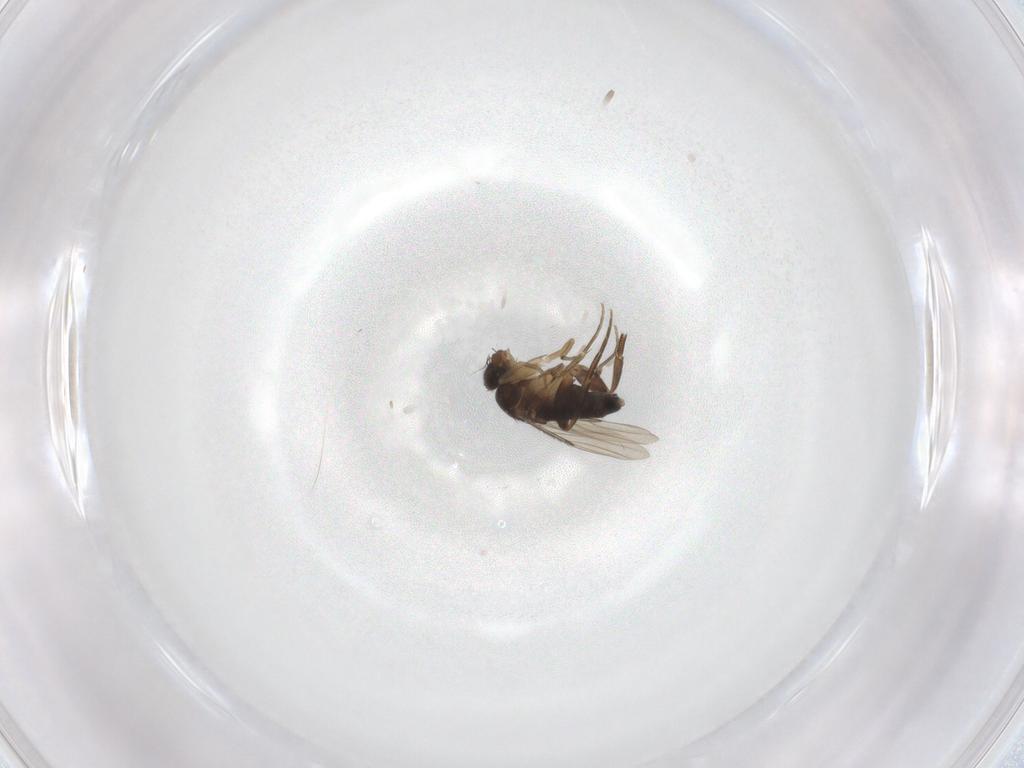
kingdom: Animalia
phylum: Arthropoda
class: Insecta
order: Diptera
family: Phoridae
